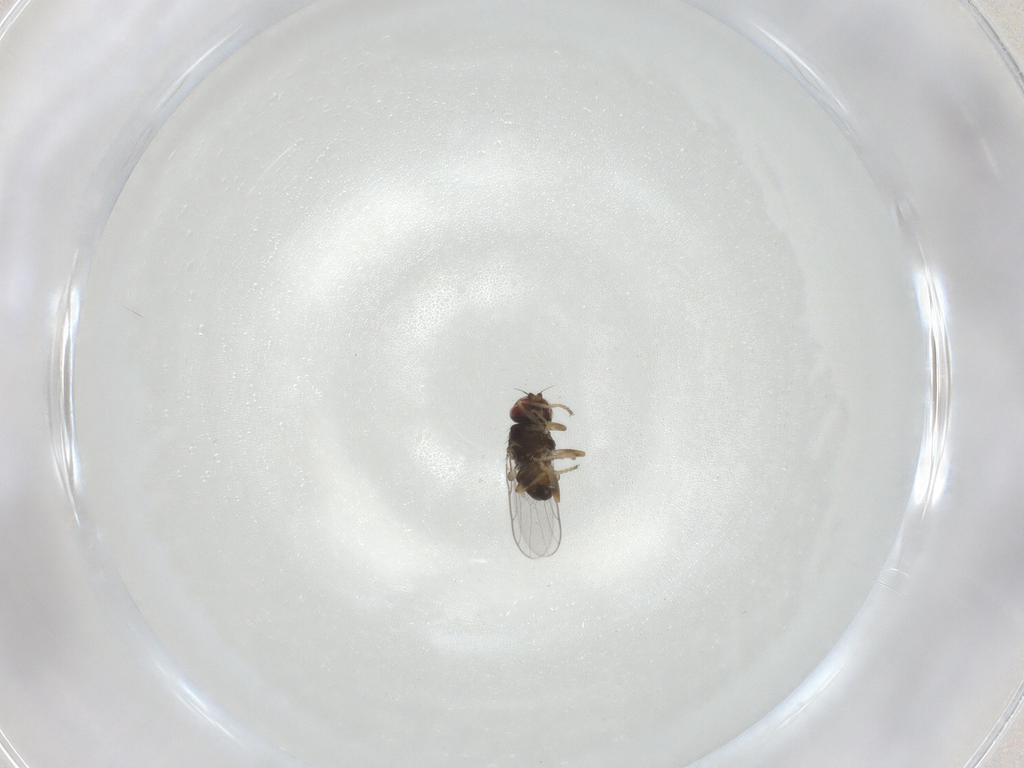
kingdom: Animalia
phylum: Arthropoda
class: Insecta
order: Diptera
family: Chloropidae
